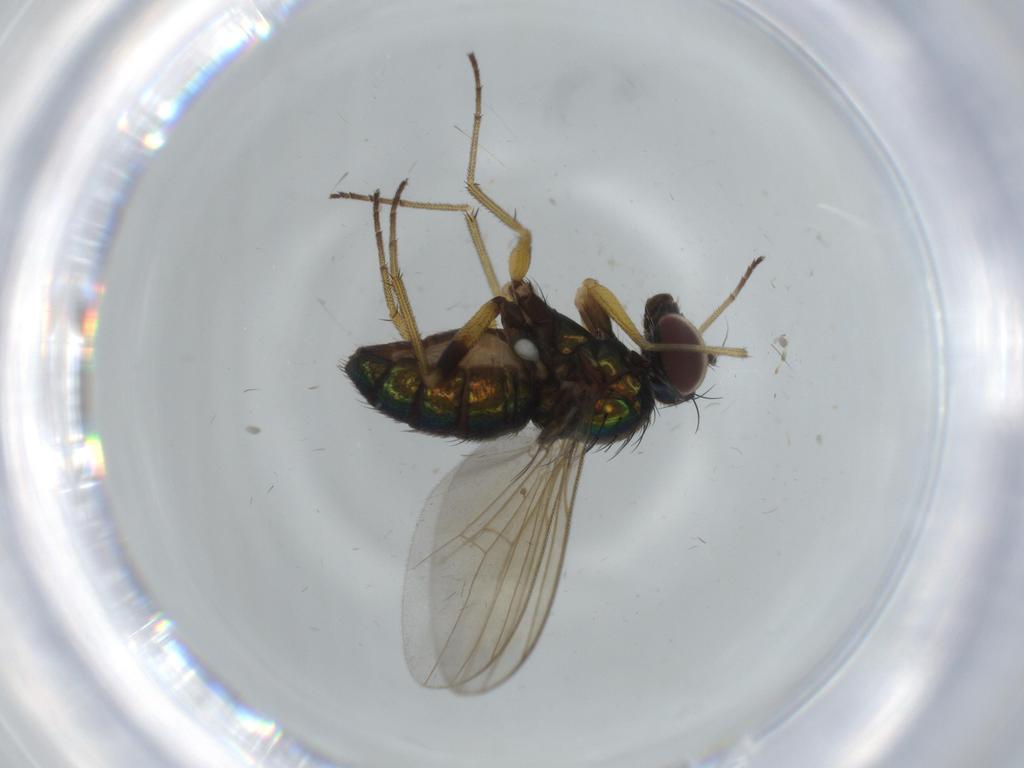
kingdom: Animalia
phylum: Arthropoda
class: Insecta
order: Diptera
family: Dolichopodidae
